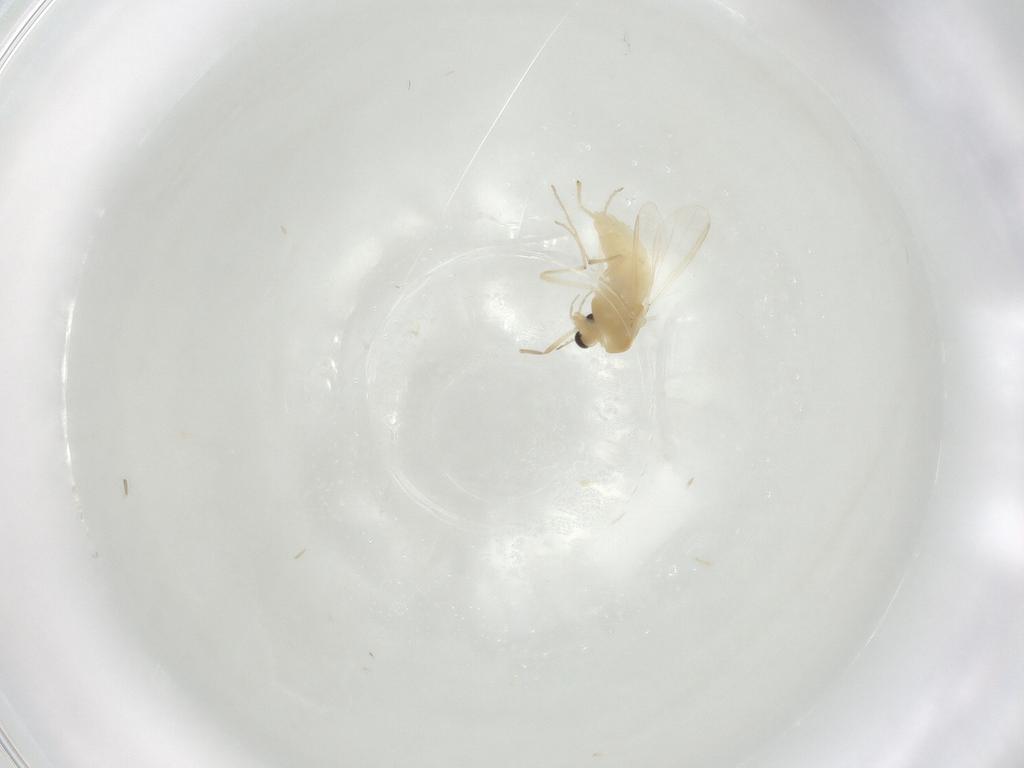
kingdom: Animalia
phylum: Arthropoda
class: Insecta
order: Diptera
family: Chironomidae
